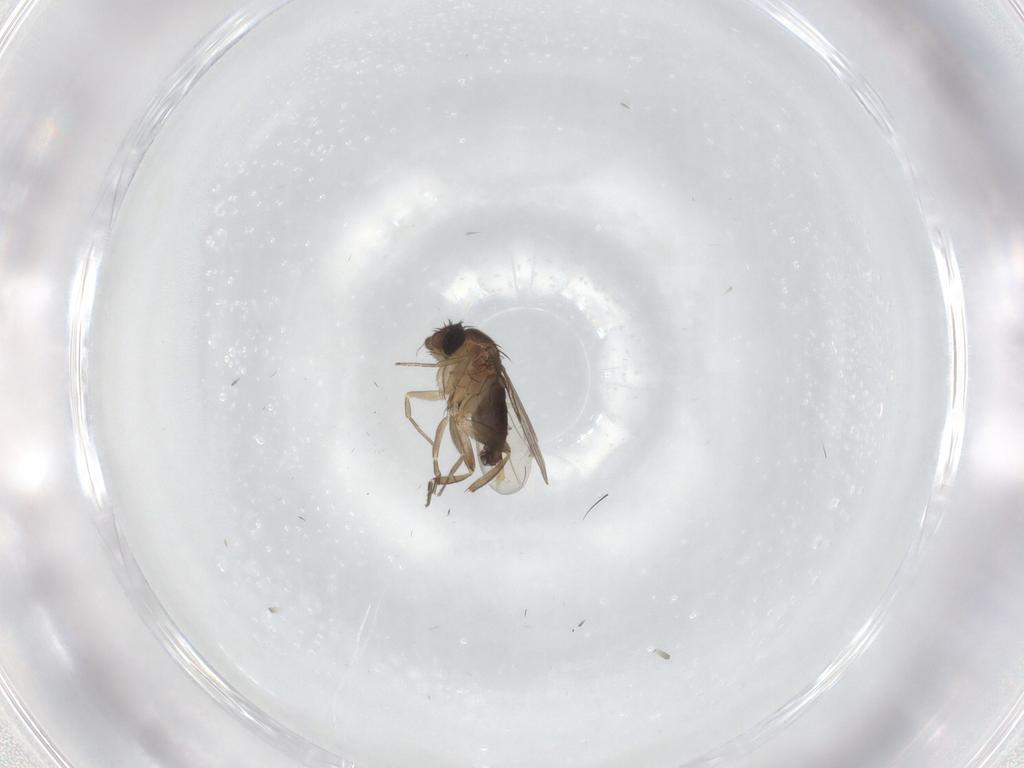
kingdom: Animalia
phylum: Arthropoda
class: Insecta
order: Diptera
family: Phoridae
